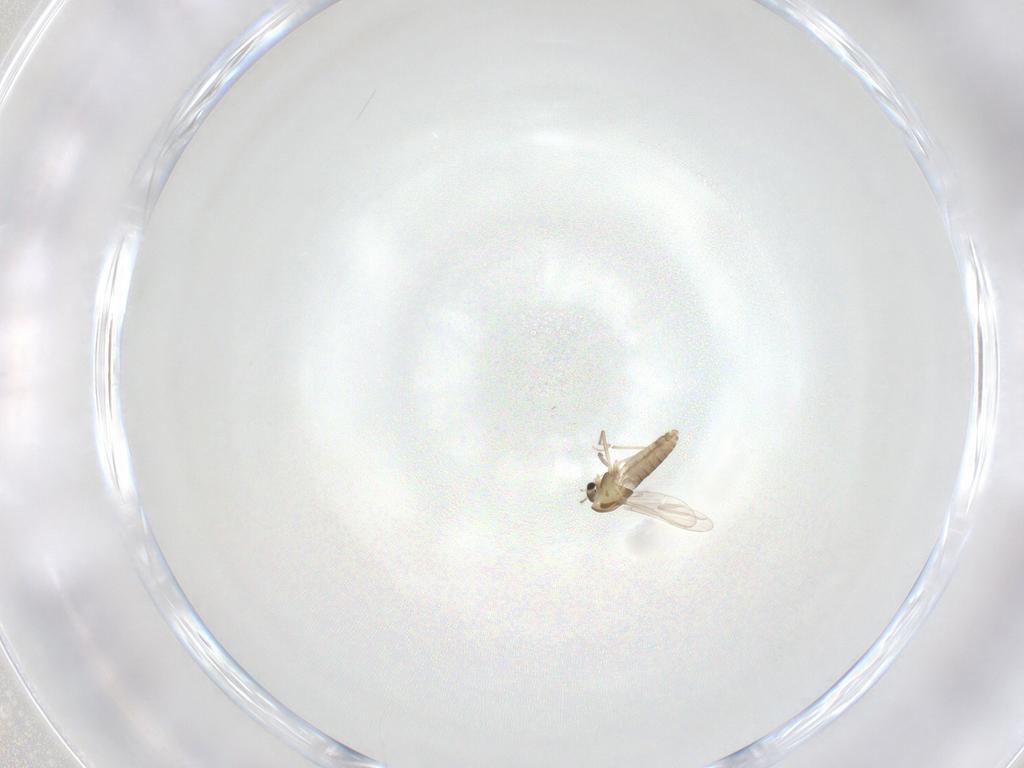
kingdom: Animalia
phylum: Arthropoda
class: Insecta
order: Diptera
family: Chironomidae
